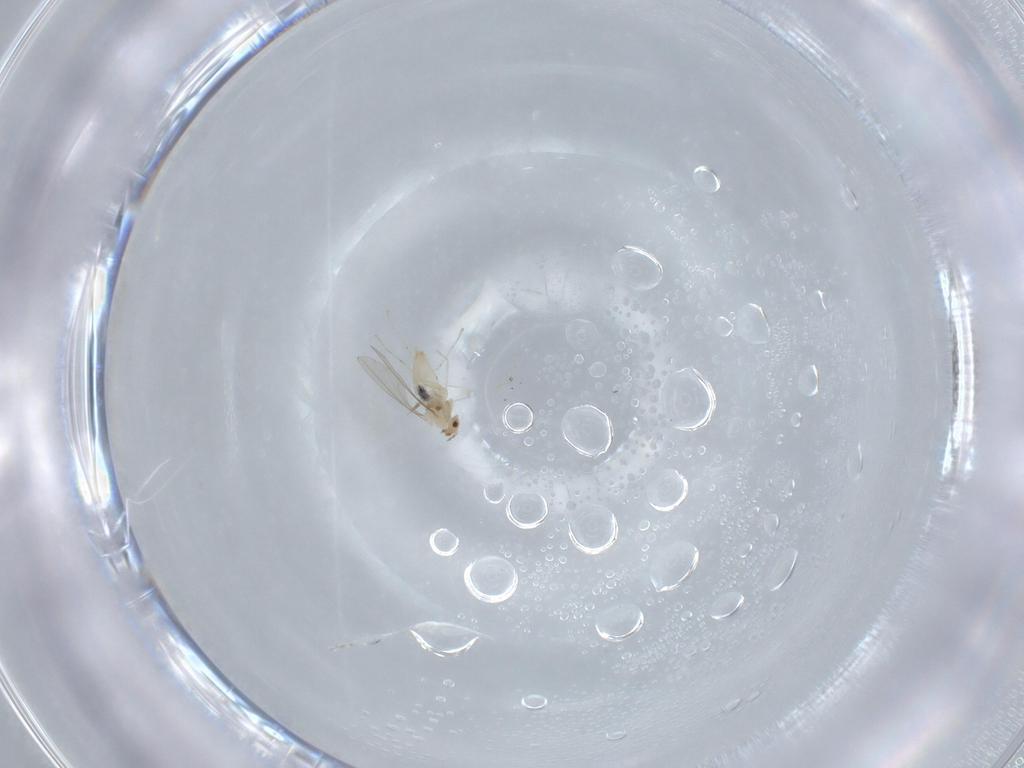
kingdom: Animalia
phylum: Arthropoda
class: Insecta
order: Diptera
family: Cecidomyiidae
